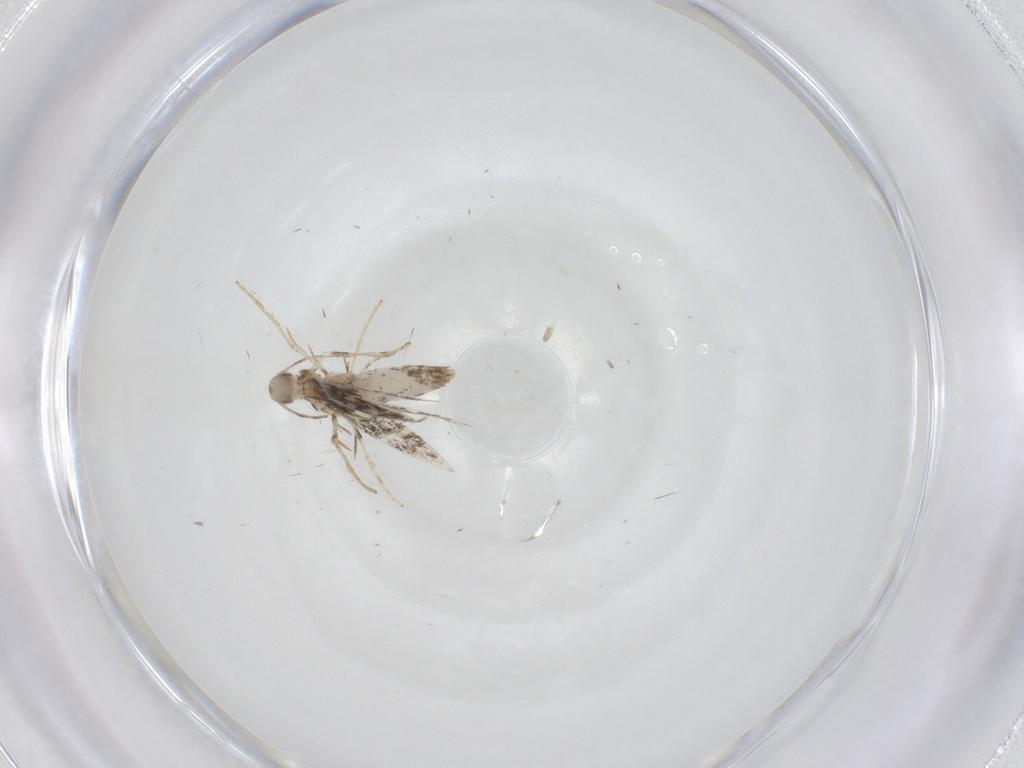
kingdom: Animalia
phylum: Arthropoda
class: Insecta
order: Lepidoptera
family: Gracillariidae
